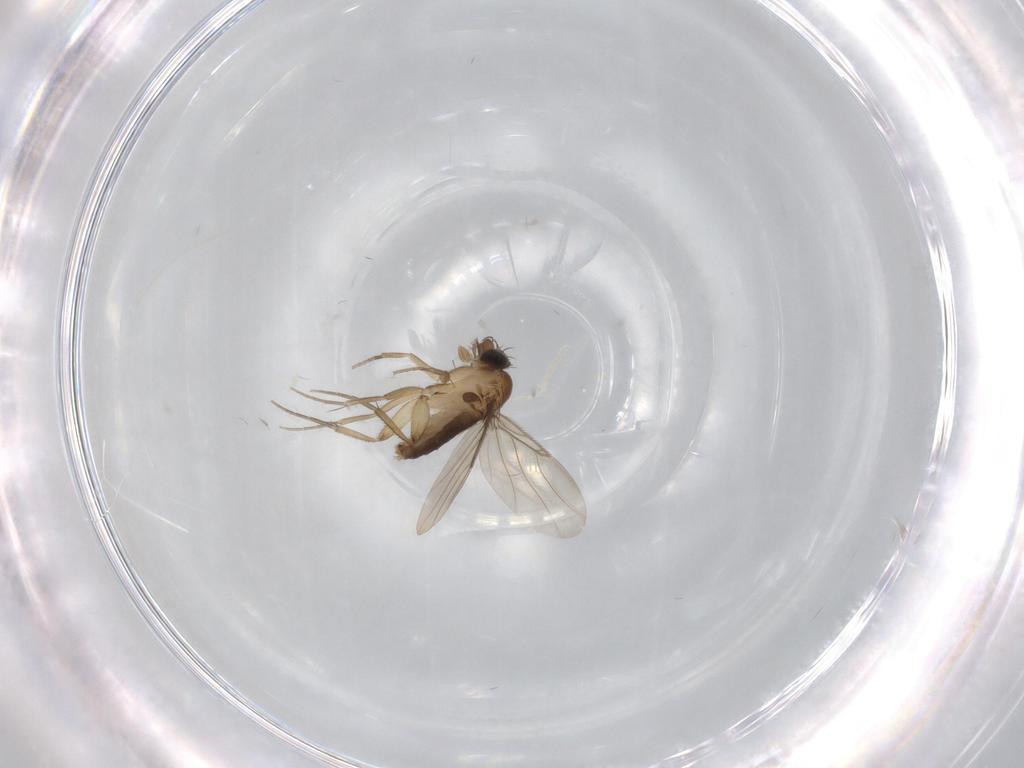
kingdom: Animalia
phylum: Arthropoda
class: Insecta
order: Diptera
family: Phoridae
